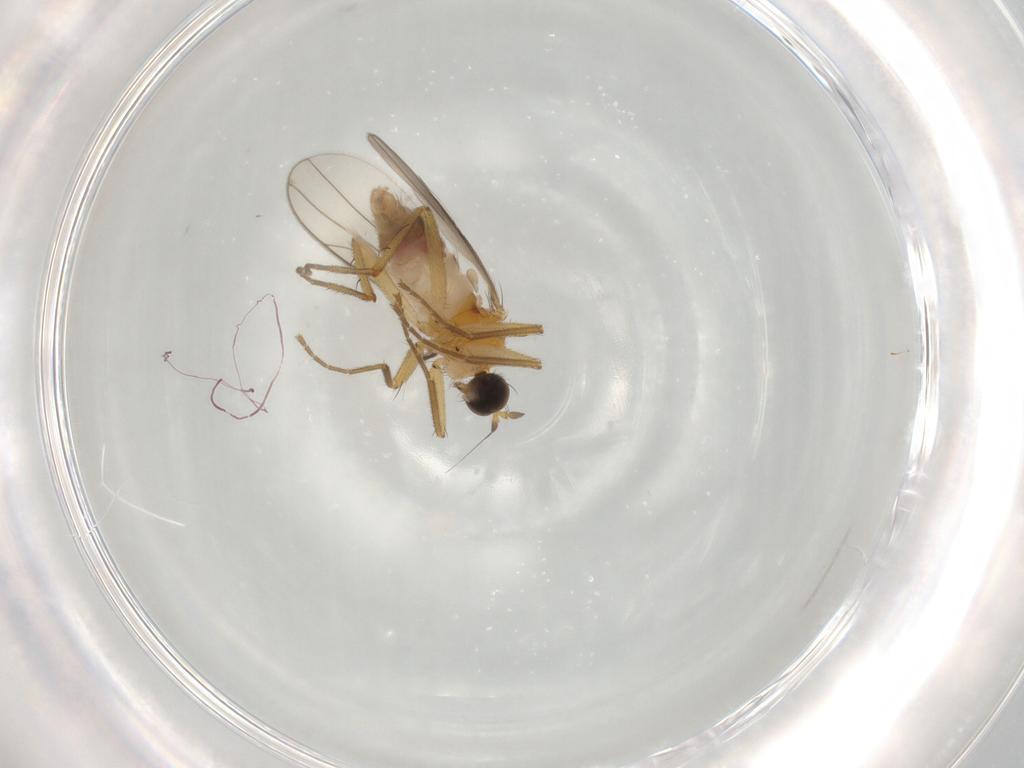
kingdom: Animalia
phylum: Arthropoda
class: Insecta
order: Diptera
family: Hybotidae
